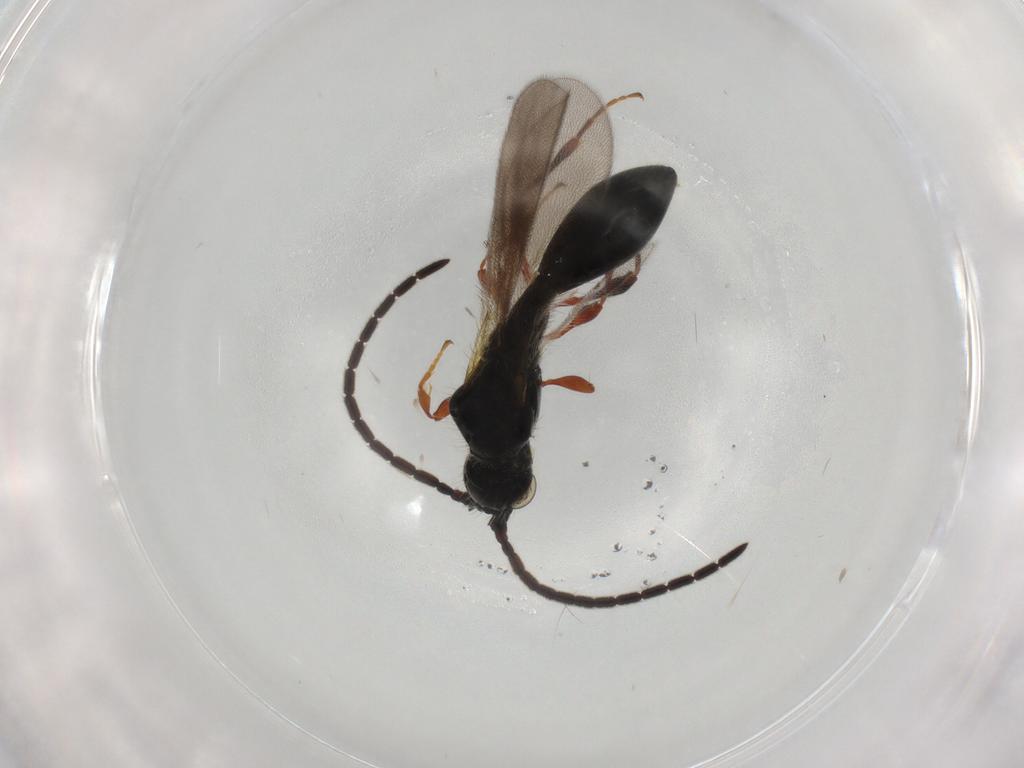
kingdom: Animalia
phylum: Arthropoda
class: Insecta
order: Hymenoptera
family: Diapriidae
